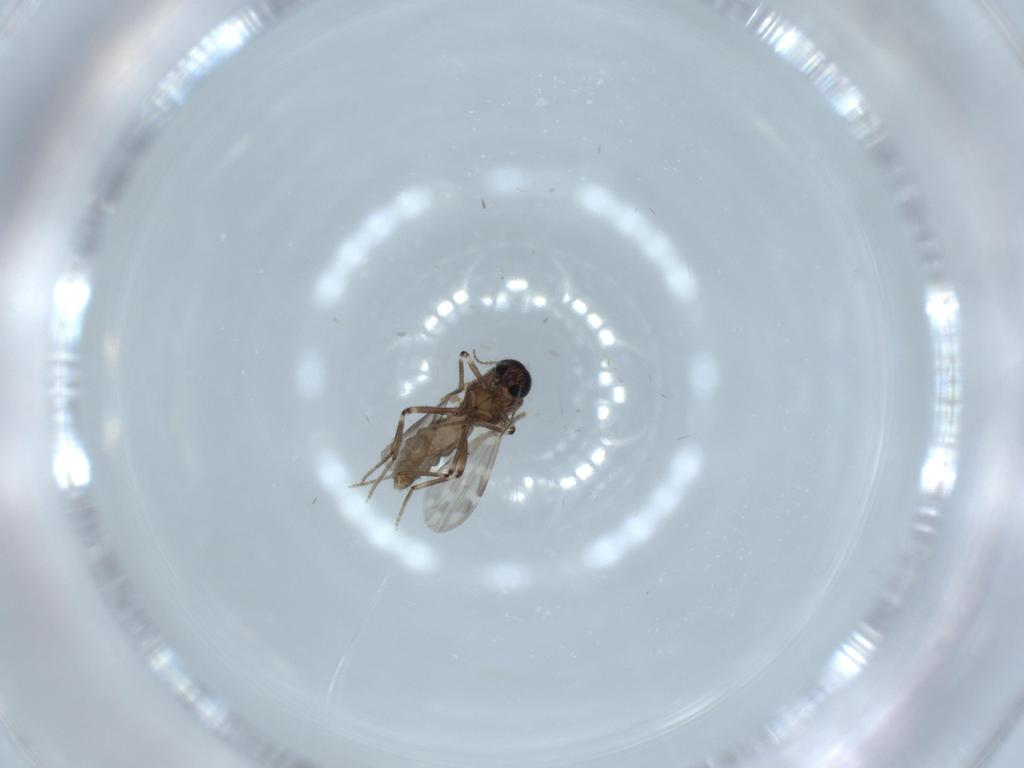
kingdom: Animalia
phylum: Arthropoda
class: Insecta
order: Diptera
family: Ceratopogonidae
